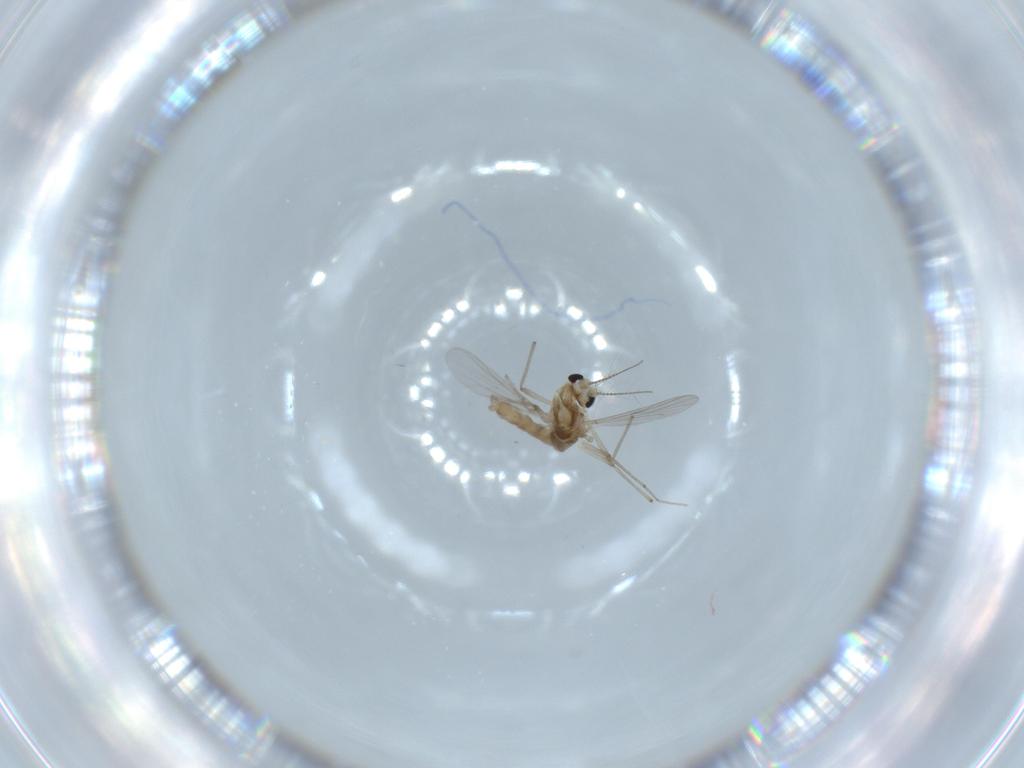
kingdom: Animalia
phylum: Arthropoda
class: Insecta
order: Diptera
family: Chironomidae
